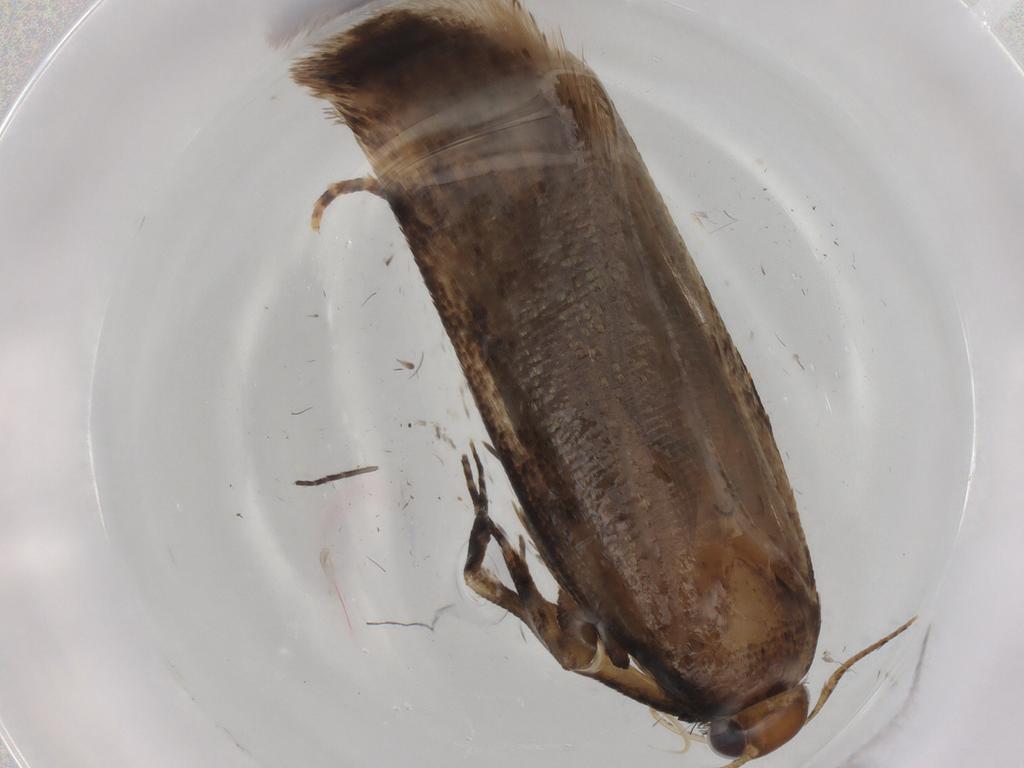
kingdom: Animalia
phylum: Arthropoda
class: Insecta
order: Lepidoptera
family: Gelechiidae
